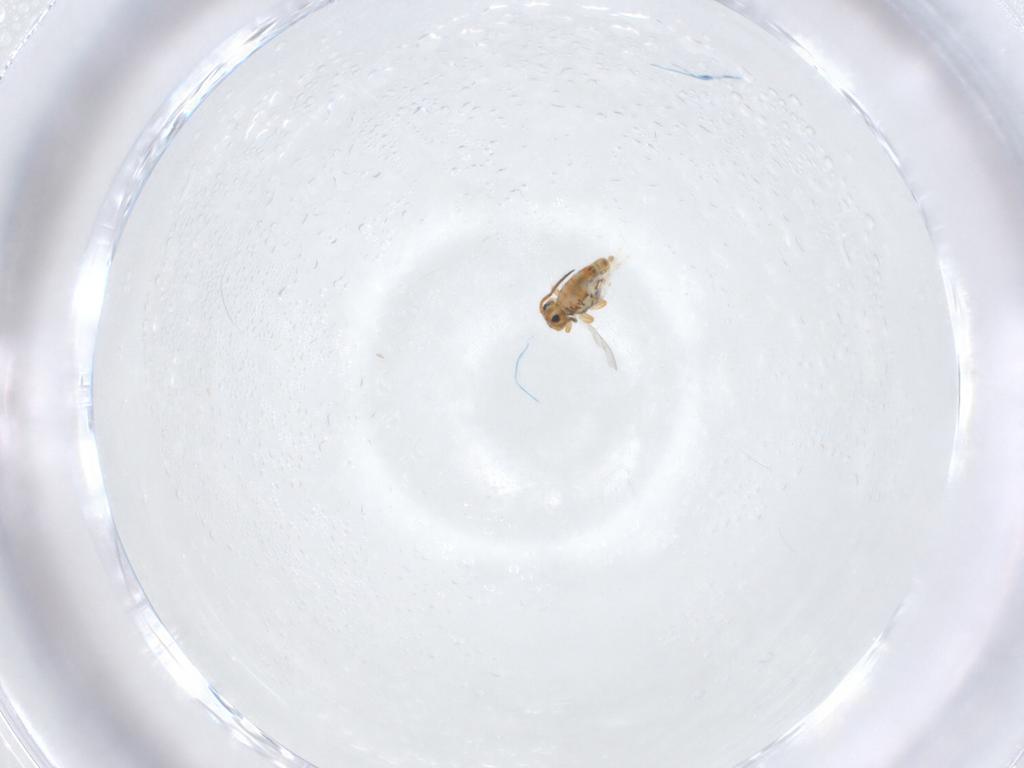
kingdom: Animalia
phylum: Arthropoda
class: Collembola
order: Symphypleona
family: Katiannidae
